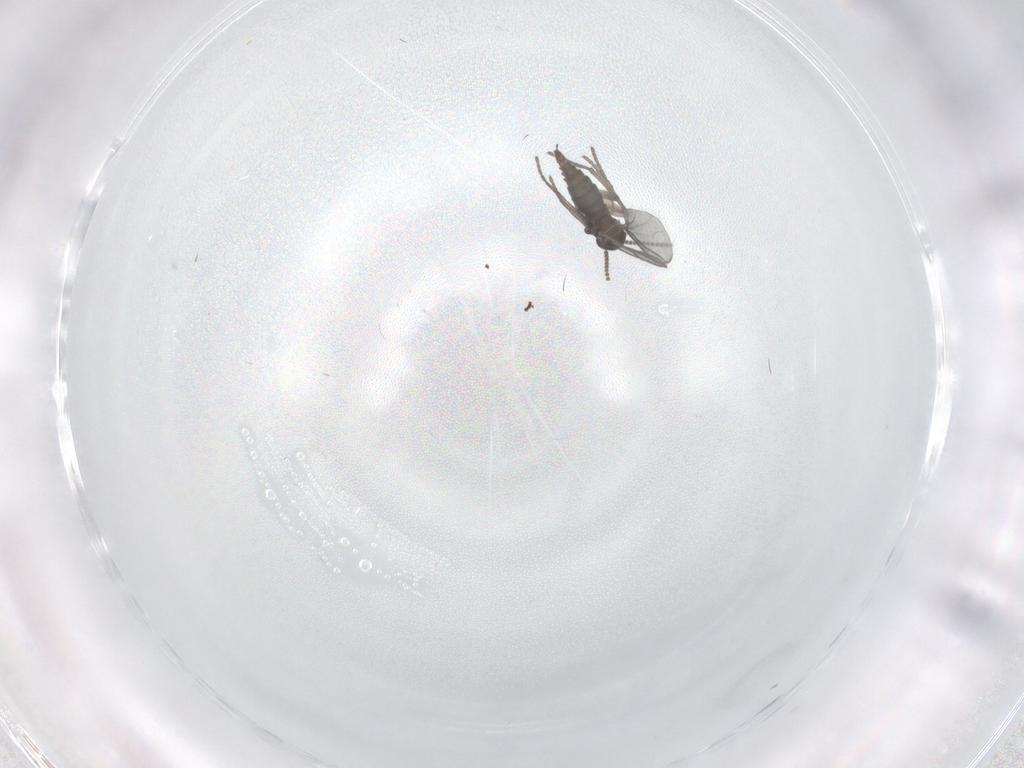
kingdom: Animalia
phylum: Arthropoda
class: Insecta
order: Diptera
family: Sciaridae
